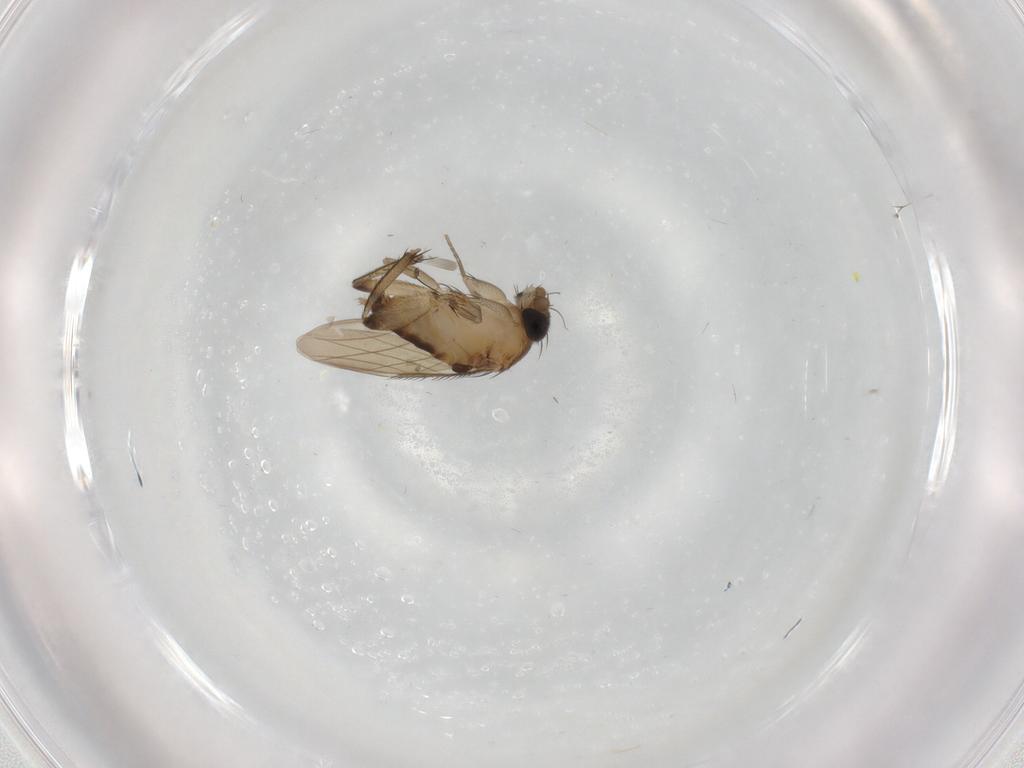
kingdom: Animalia
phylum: Arthropoda
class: Insecta
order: Diptera
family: Phoridae
